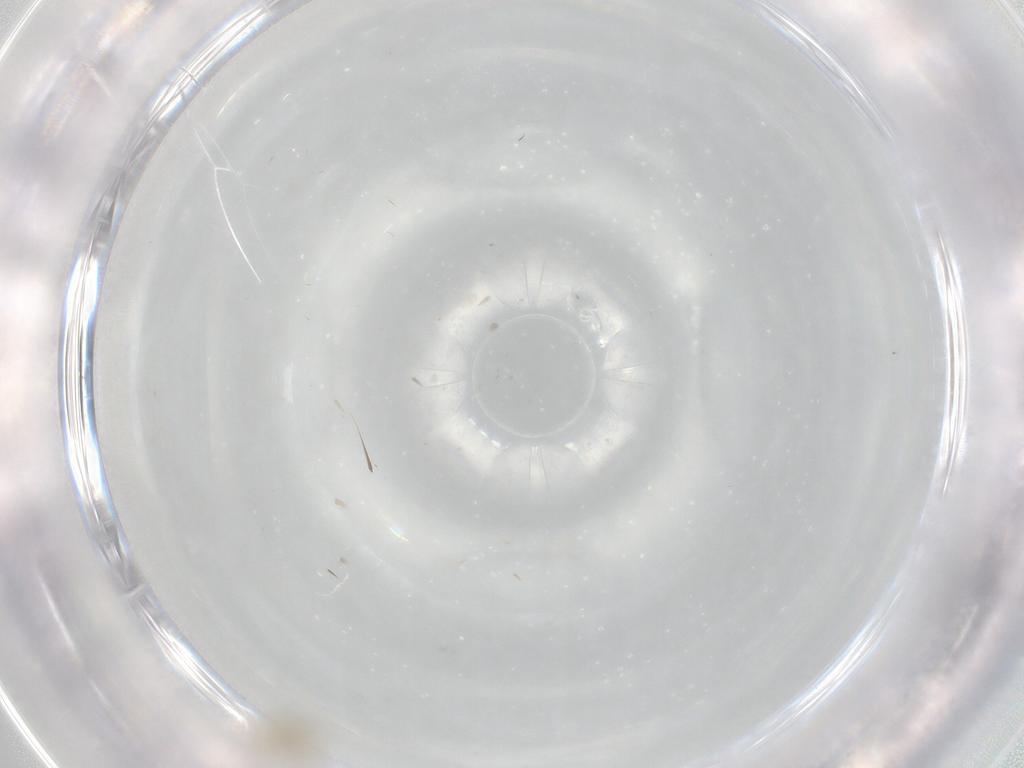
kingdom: Animalia
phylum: Arthropoda
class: Insecta
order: Diptera
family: Cecidomyiidae
